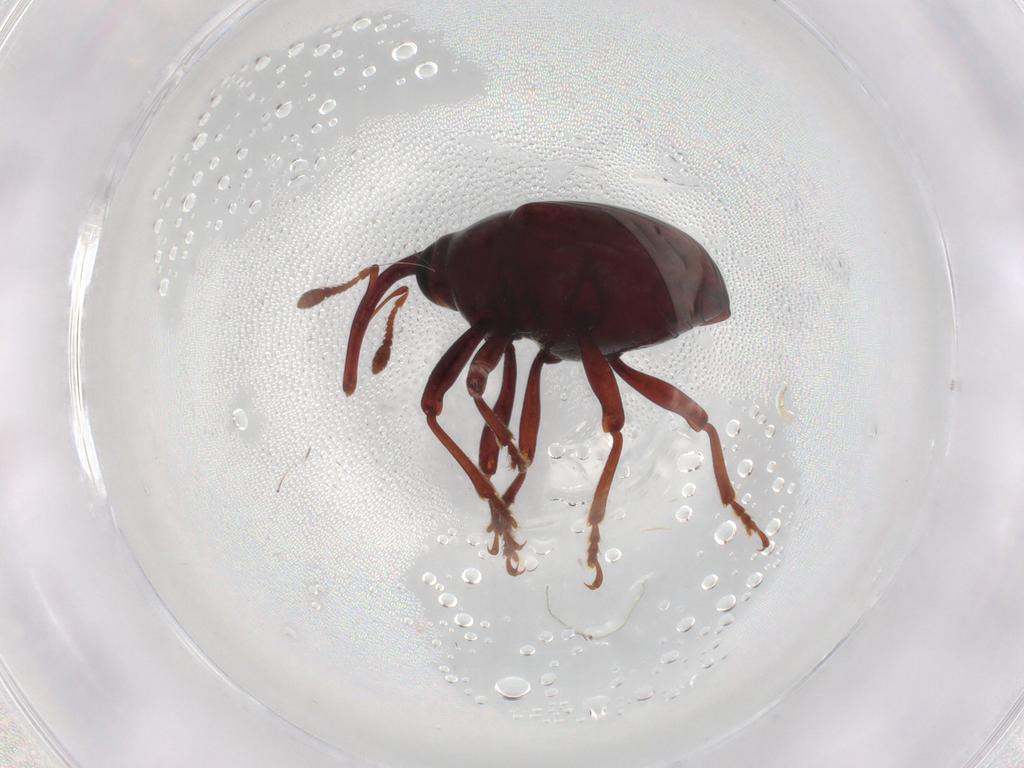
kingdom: Animalia
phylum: Arthropoda
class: Insecta
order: Coleoptera
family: Curculionidae
